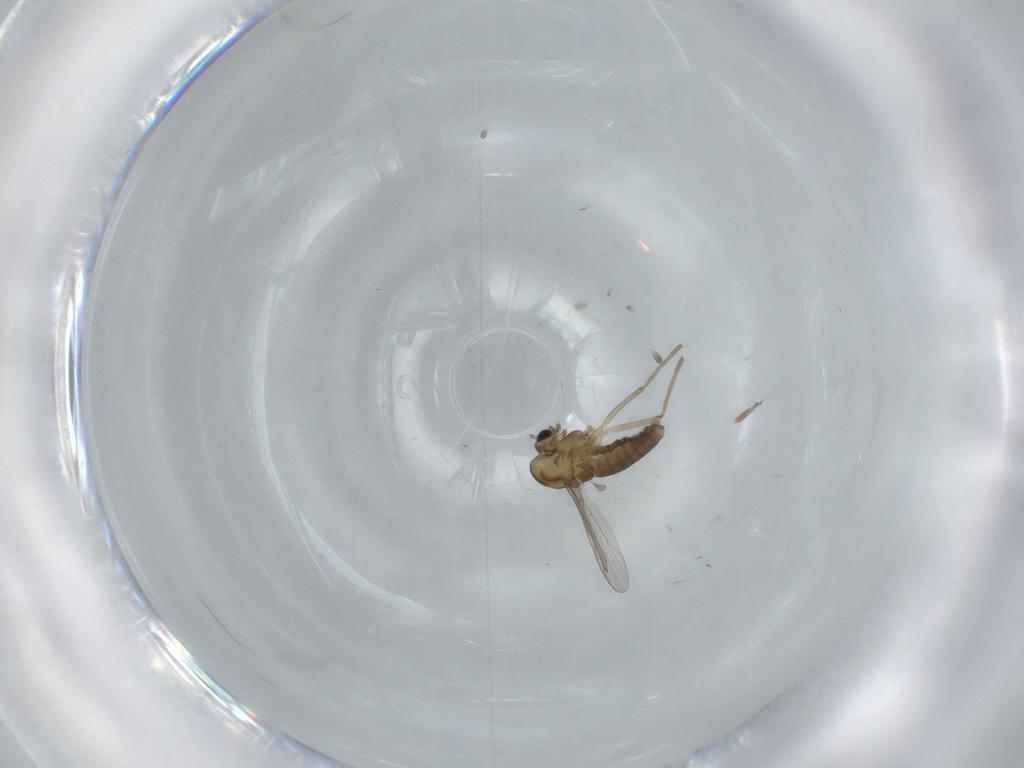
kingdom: Animalia
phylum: Arthropoda
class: Insecta
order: Diptera
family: Chironomidae
